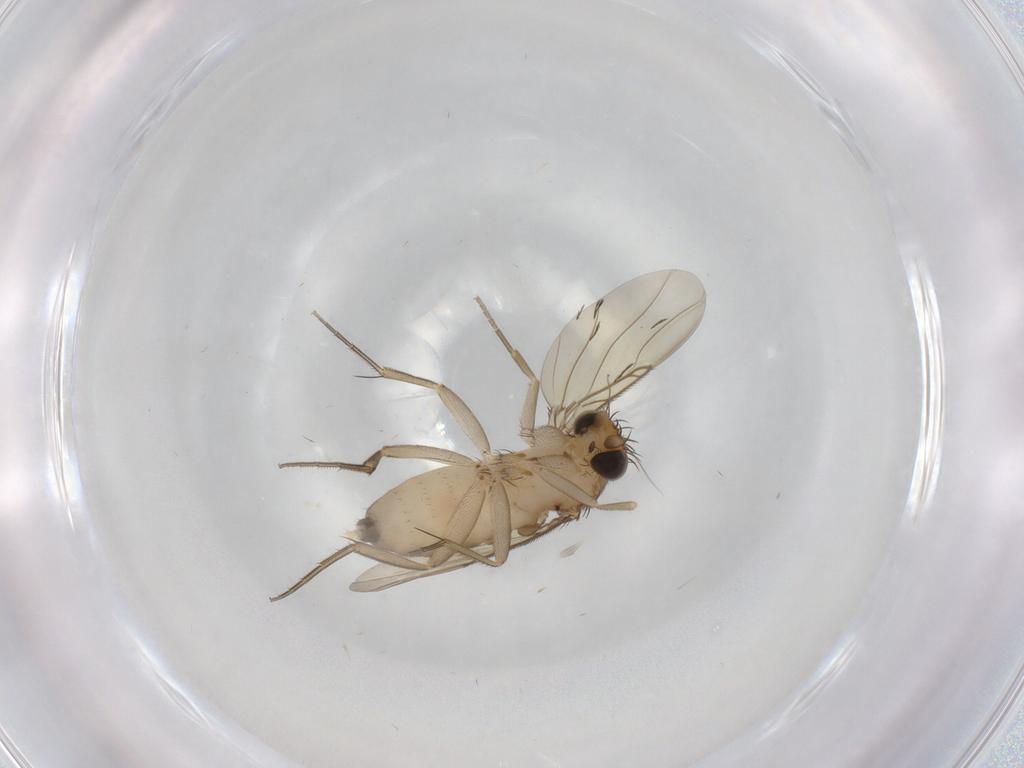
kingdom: Animalia
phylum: Arthropoda
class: Insecta
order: Diptera
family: Phoridae
